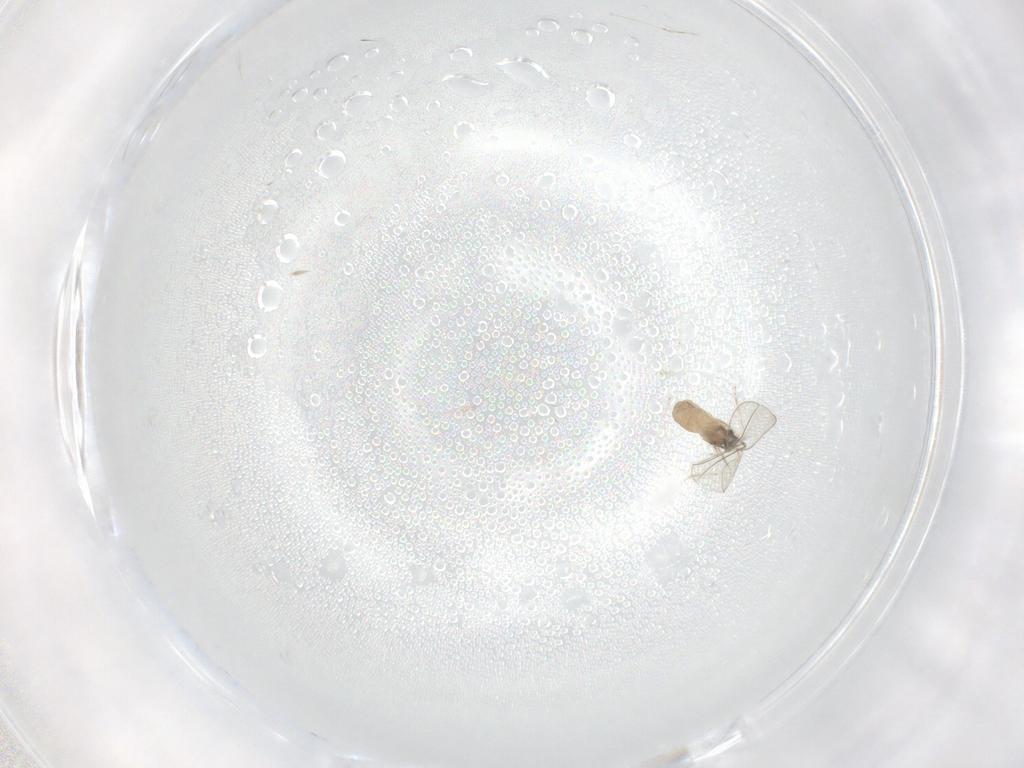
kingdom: Animalia
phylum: Arthropoda
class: Insecta
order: Diptera
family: Cecidomyiidae
